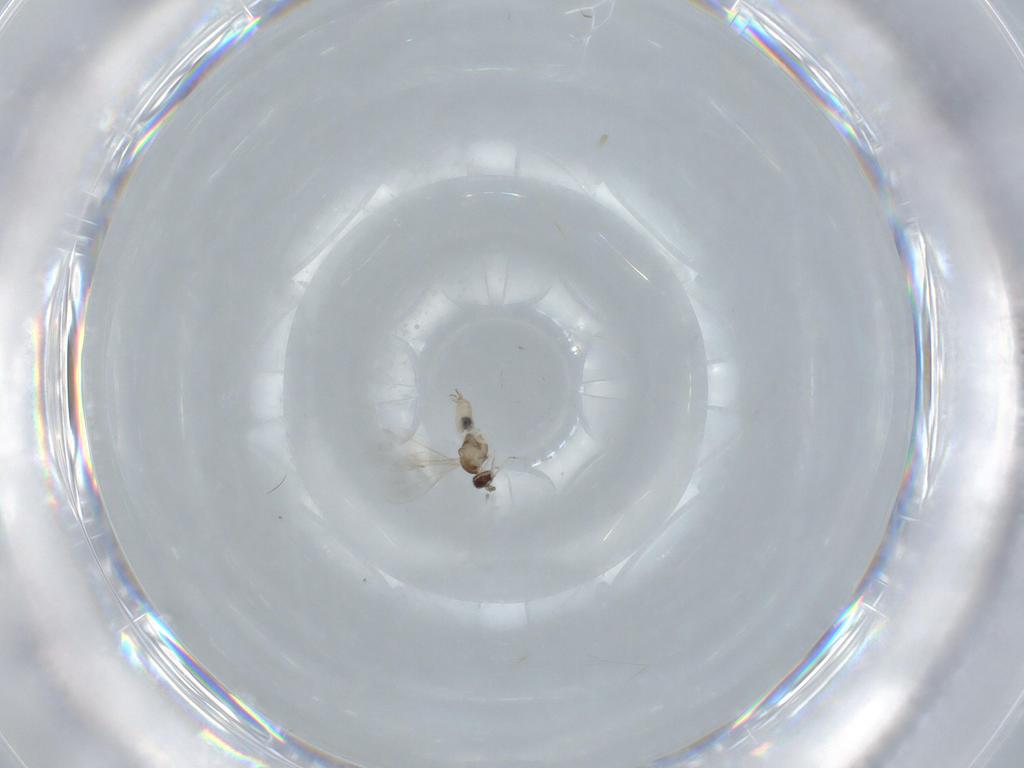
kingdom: Animalia
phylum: Arthropoda
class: Insecta
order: Diptera
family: Cecidomyiidae
